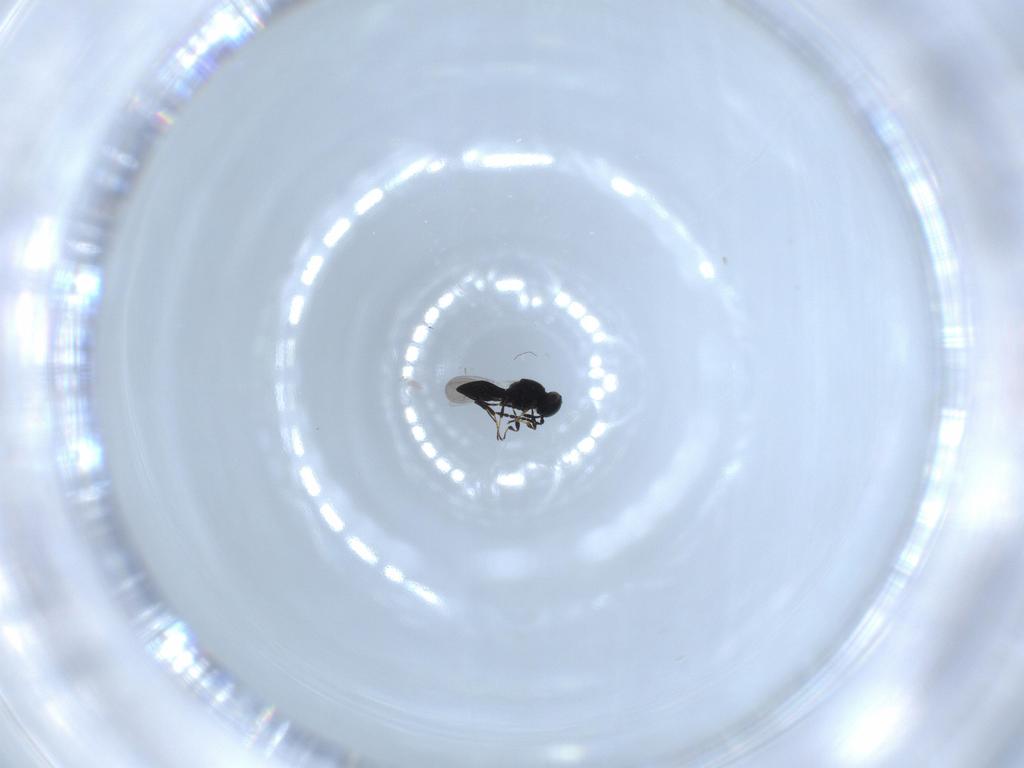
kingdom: Animalia
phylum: Arthropoda
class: Insecta
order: Hymenoptera
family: Platygastridae
